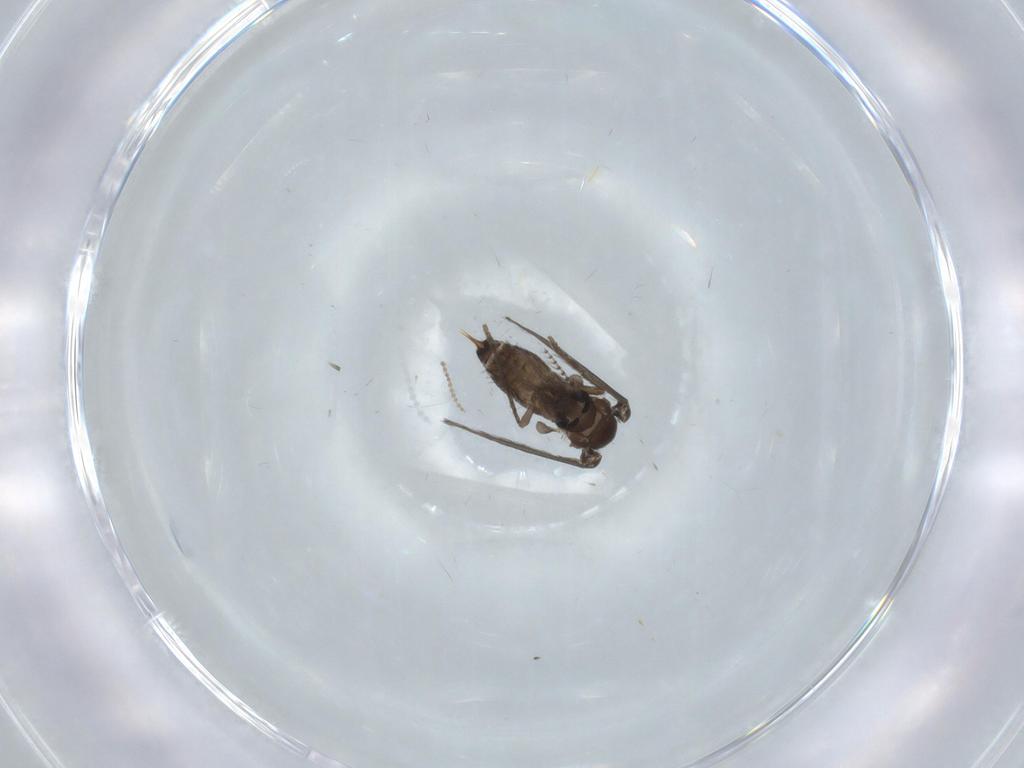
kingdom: Animalia
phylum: Arthropoda
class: Insecta
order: Diptera
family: Psychodidae
